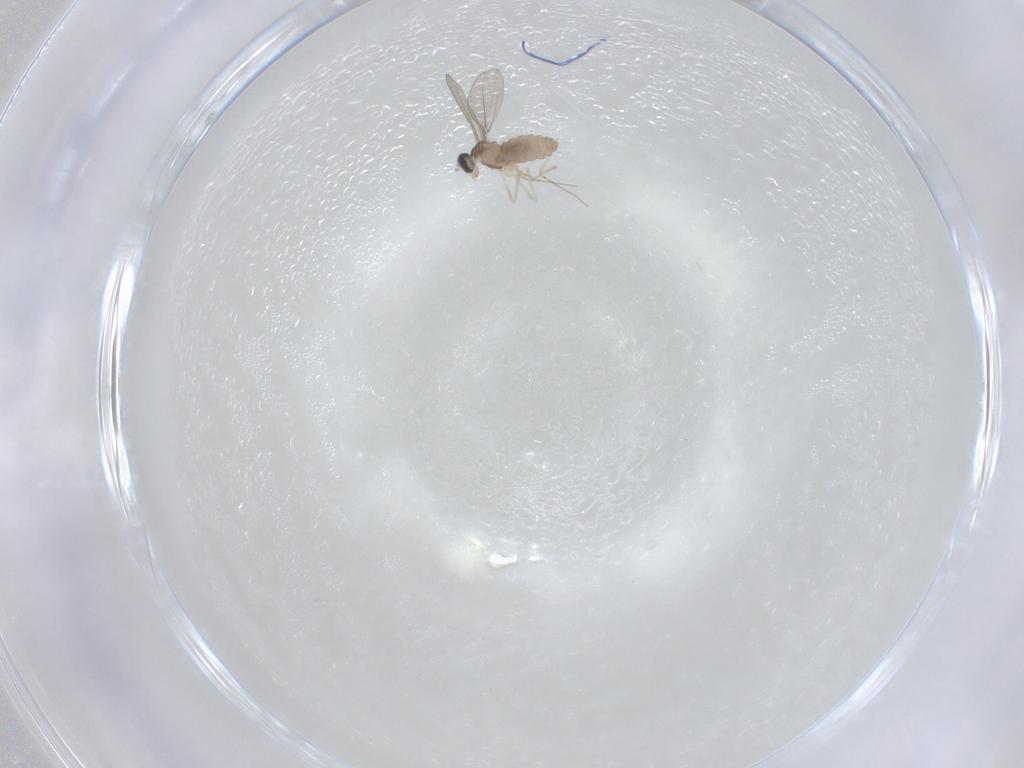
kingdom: Animalia
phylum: Arthropoda
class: Insecta
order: Diptera
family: Cecidomyiidae
